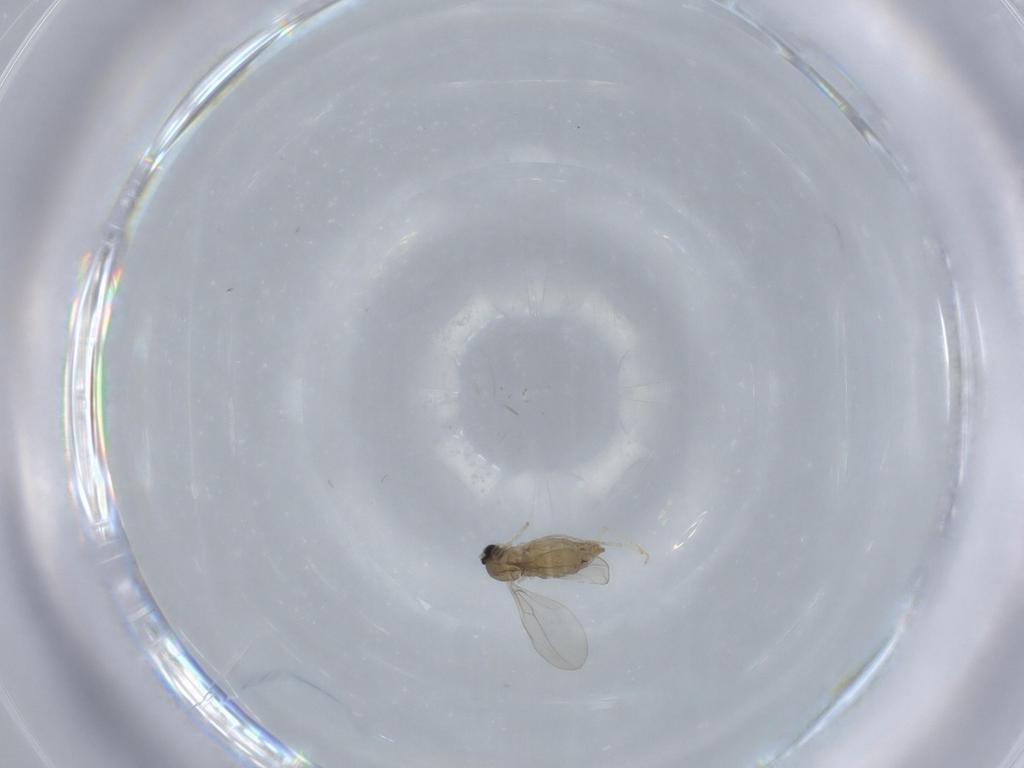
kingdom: Animalia
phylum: Arthropoda
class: Insecta
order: Diptera
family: Cecidomyiidae
